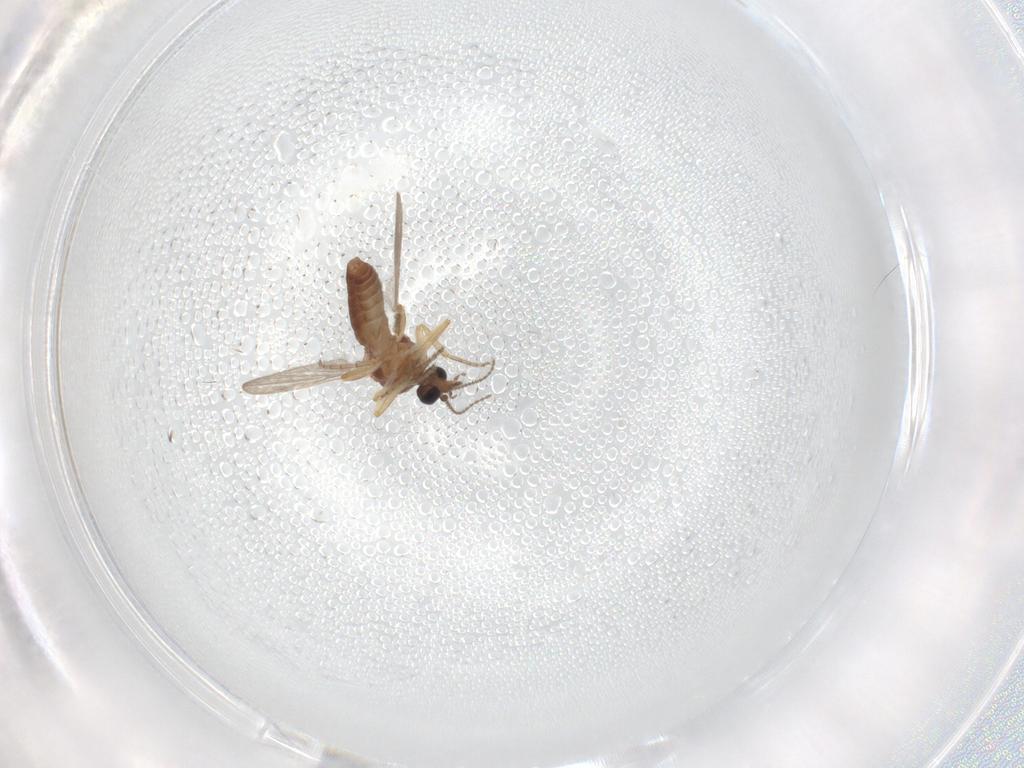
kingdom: Animalia
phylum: Arthropoda
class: Insecta
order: Diptera
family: Ceratopogonidae
